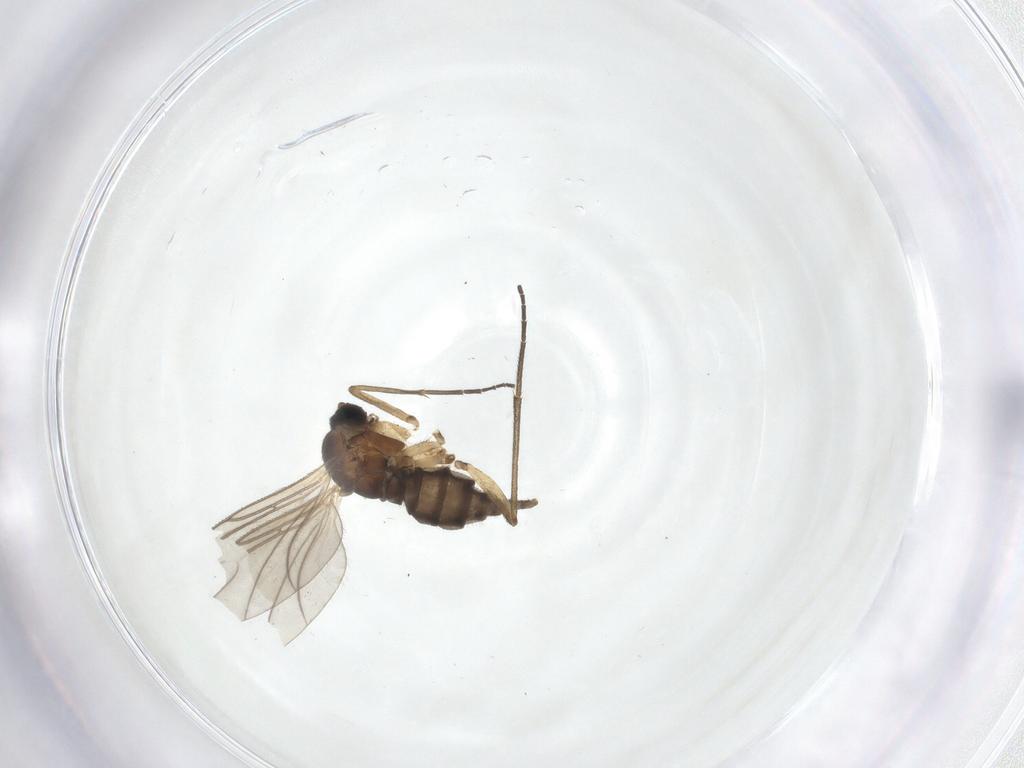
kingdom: Animalia
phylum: Arthropoda
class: Insecta
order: Diptera
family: Sciaridae
